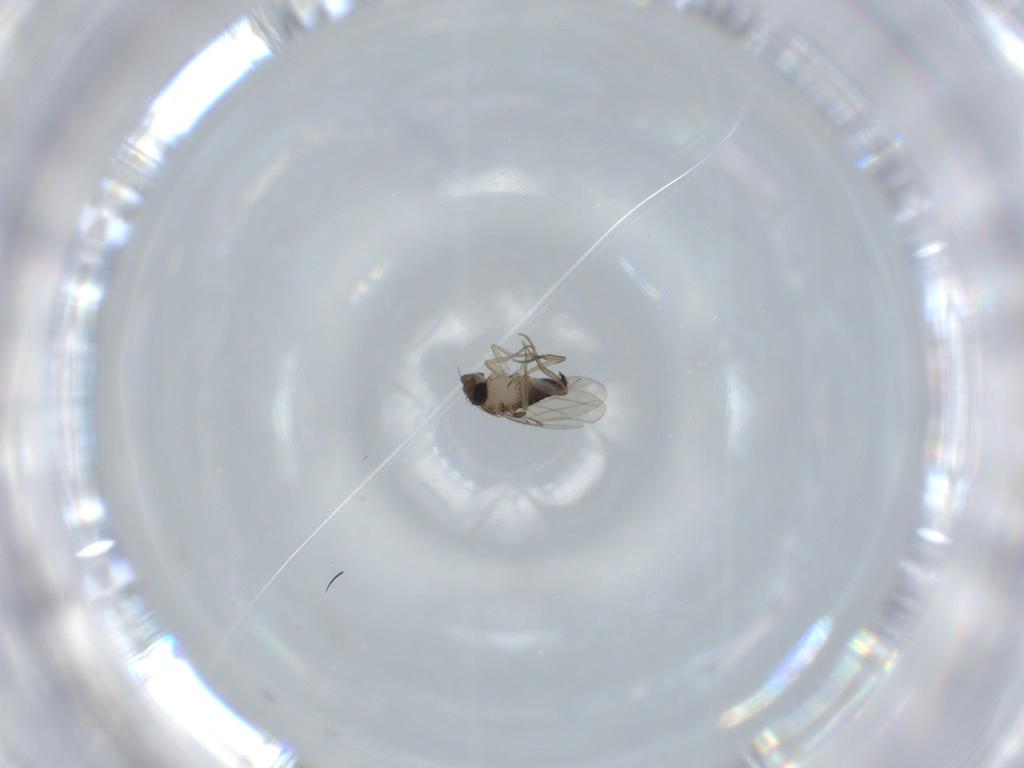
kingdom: Animalia
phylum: Arthropoda
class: Insecta
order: Diptera
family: Phoridae
